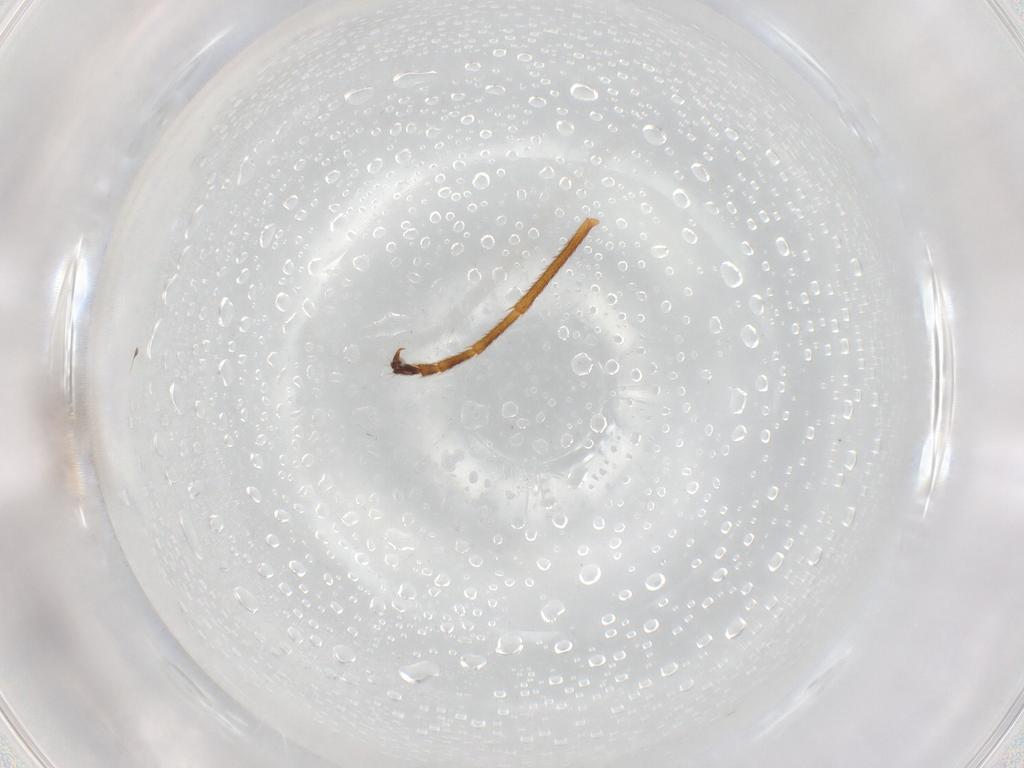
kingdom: Animalia
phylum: Arthropoda
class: Insecta
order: Diptera
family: Chironomidae
